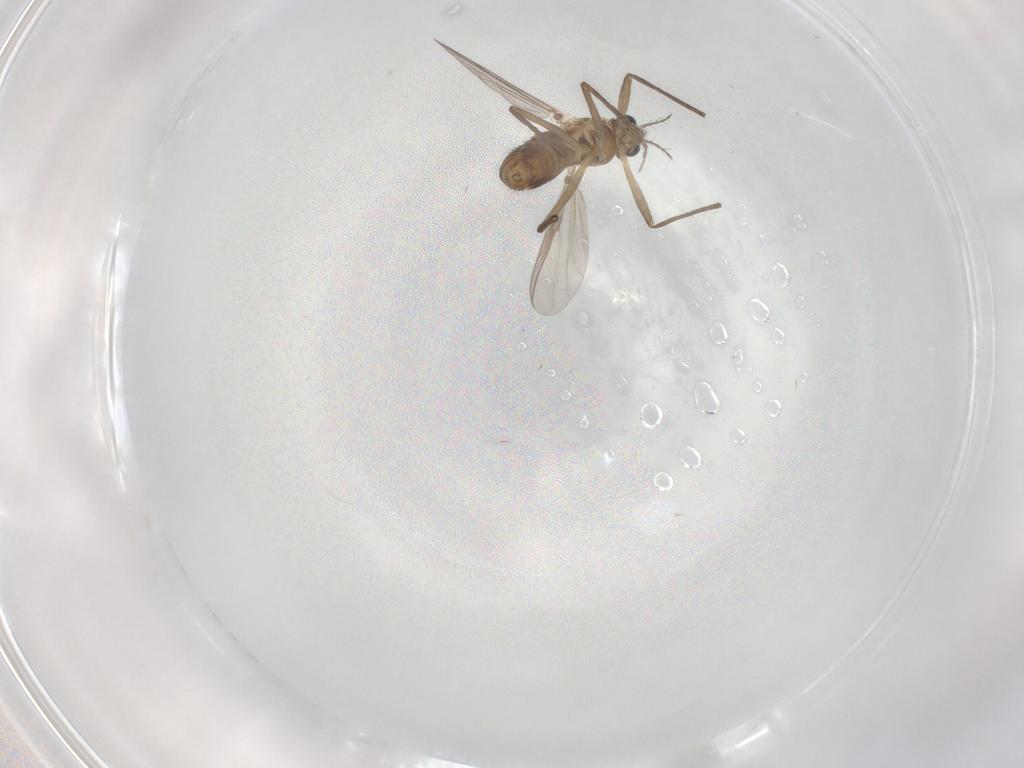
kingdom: Animalia
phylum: Arthropoda
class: Insecta
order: Diptera
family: Chironomidae
